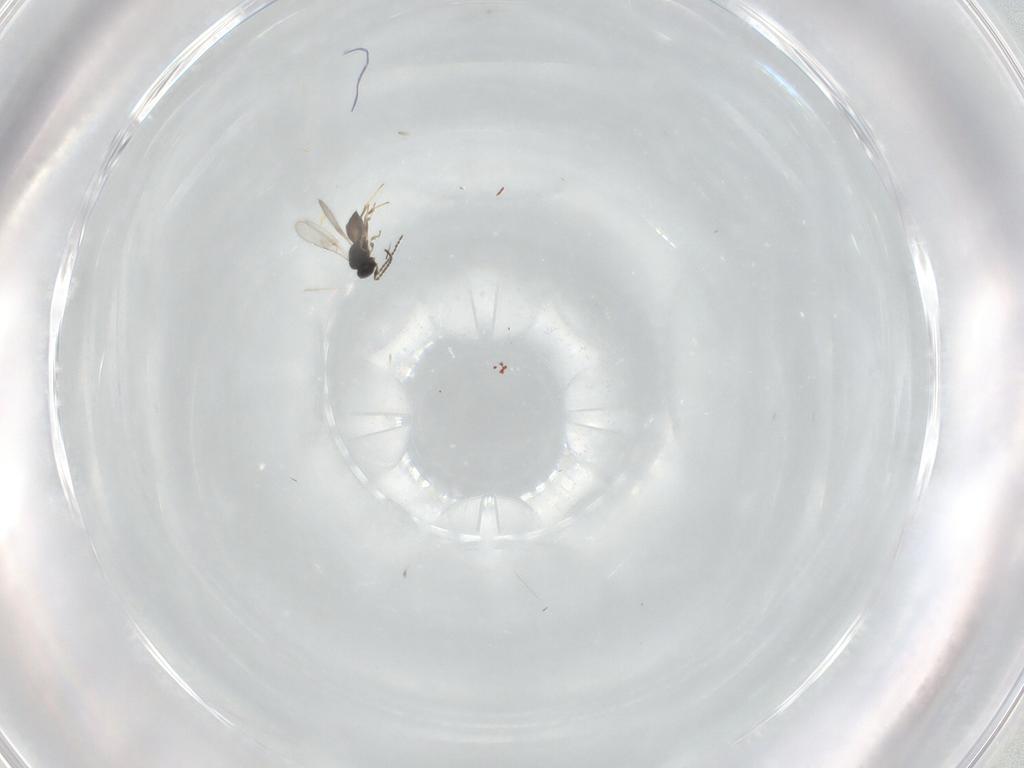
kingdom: Animalia
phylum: Arthropoda
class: Insecta
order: Hymenoptera
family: Scelionidae
